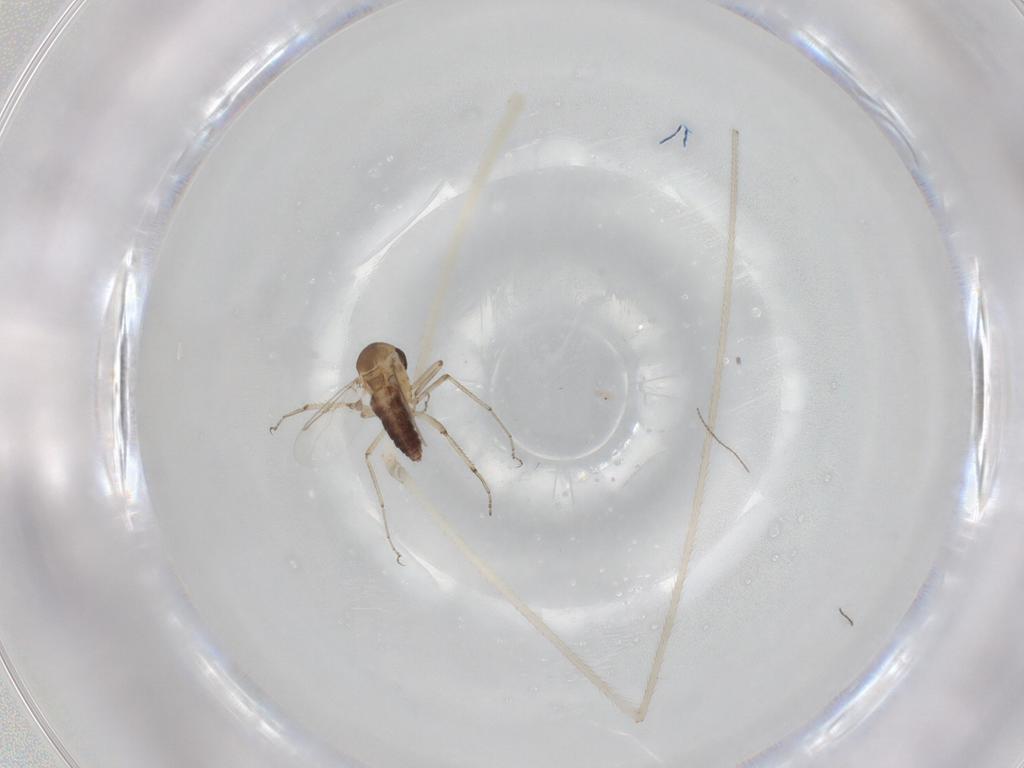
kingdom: Animalia
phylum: Arthropoda
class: Insecta
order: Diptera
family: Ceratopogonidae
